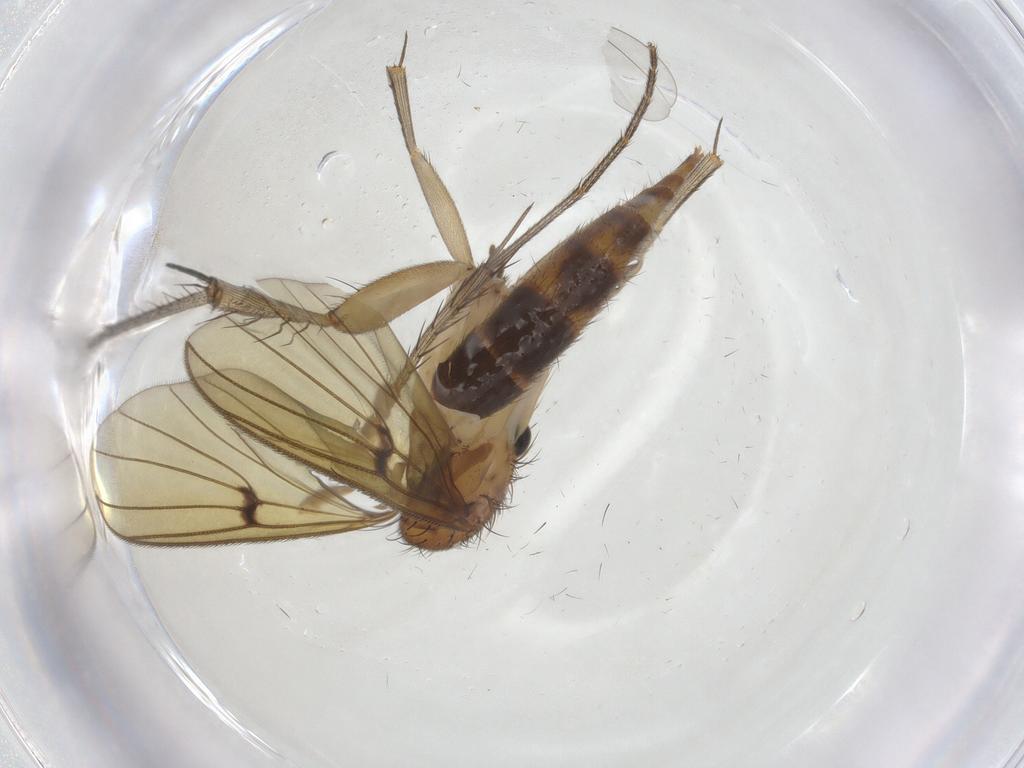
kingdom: Animalia
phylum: Arthropoda
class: Insecta
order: Diptera
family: Mycetophilidae
